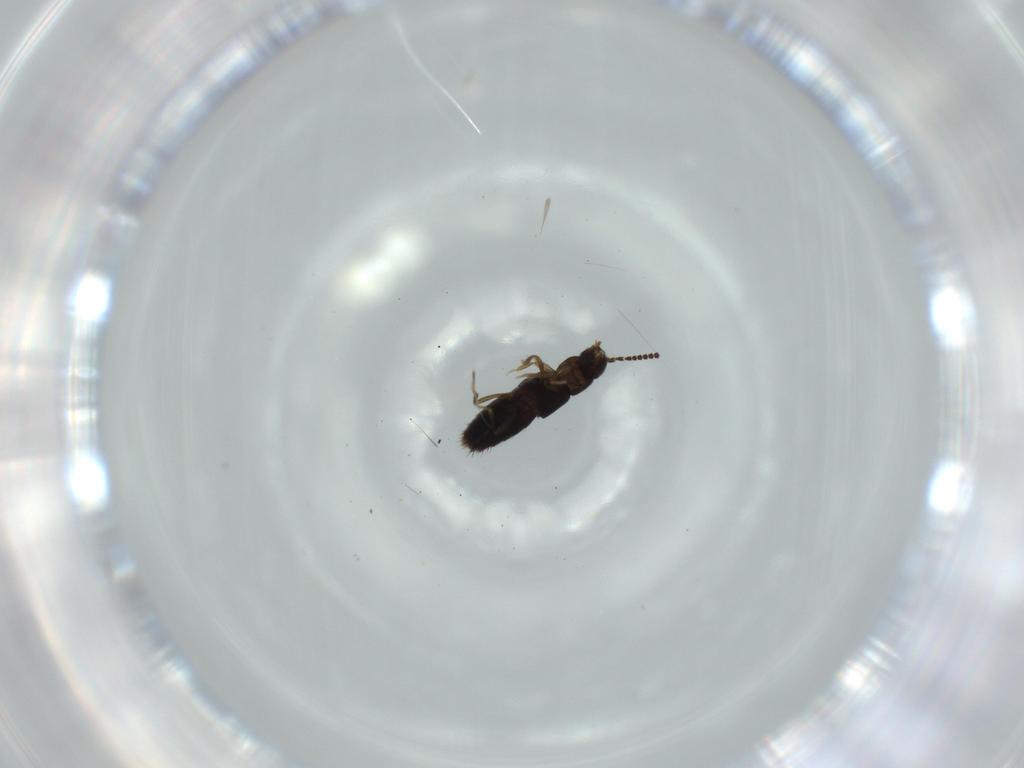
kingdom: Animalia
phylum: Arthropoda
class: Insecta
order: Coleoptera
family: Staphylinidae
